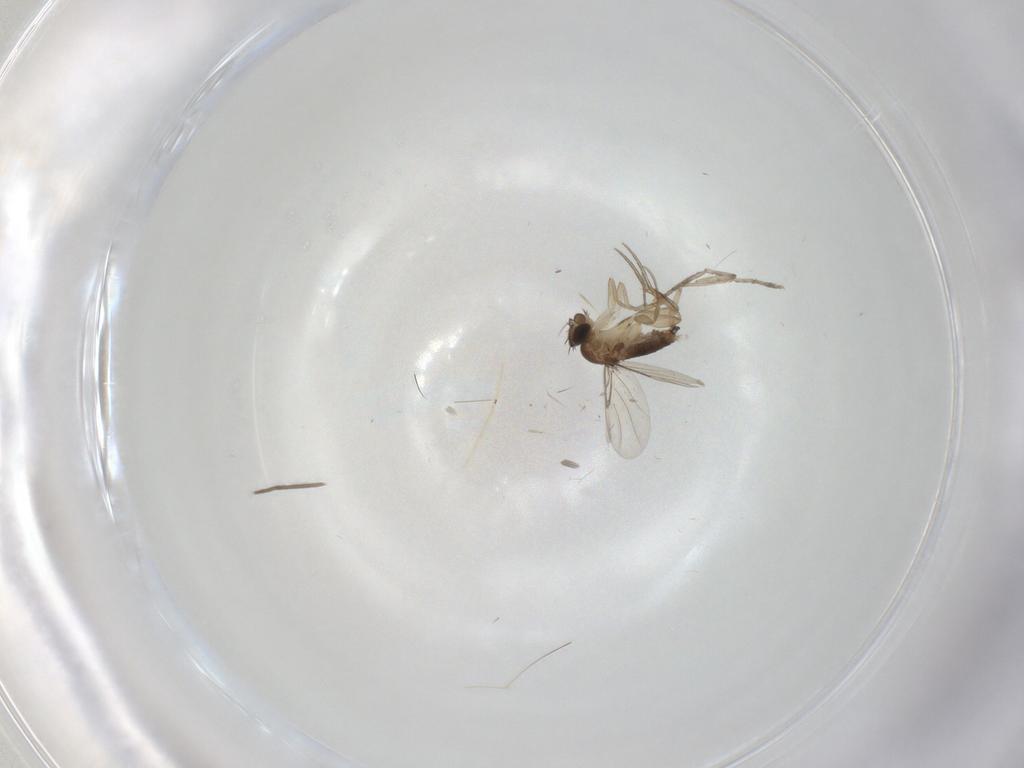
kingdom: Animalia
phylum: Arthropoda
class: Insecta
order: Diptera
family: Phoridae
